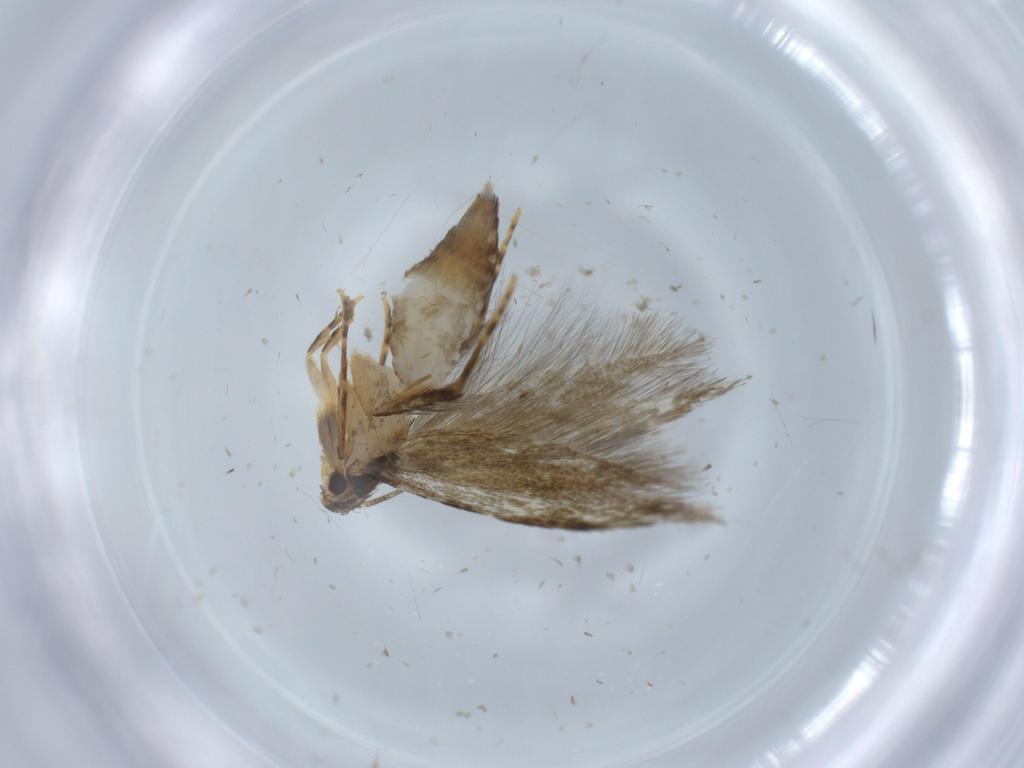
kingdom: Animalia
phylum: Arthropoda
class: Insecta
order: Lepidoptera
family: Tineidae
